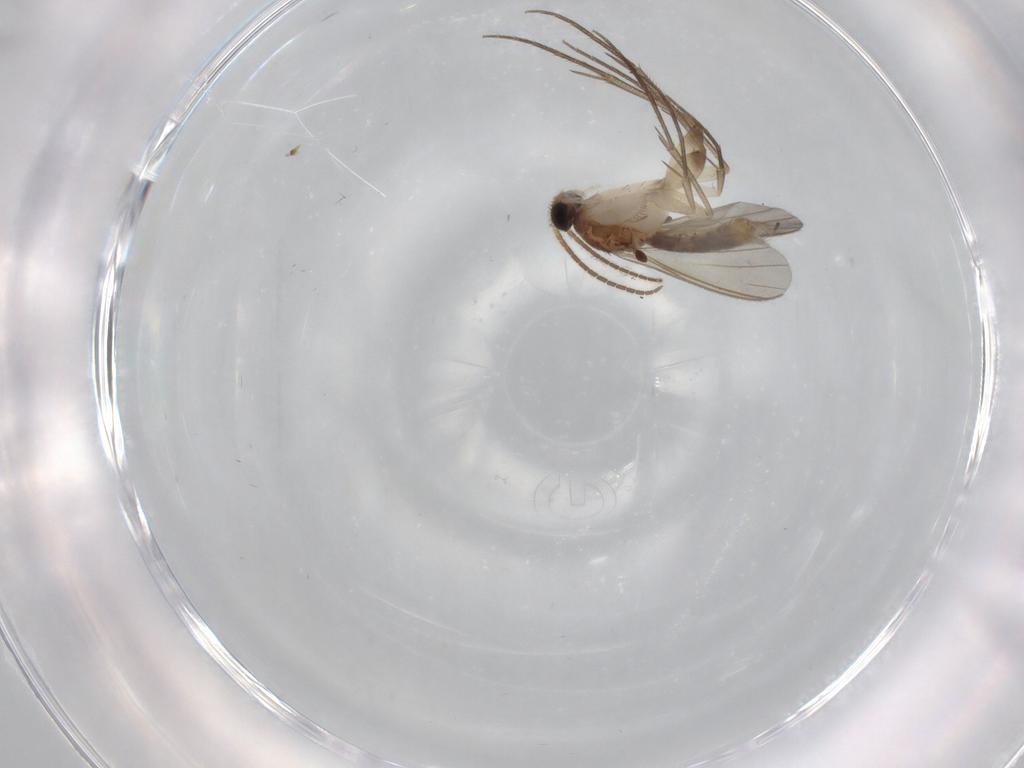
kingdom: Animalia
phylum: Arthropoda
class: Insecta
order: Diptera
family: Mycetophilidae
